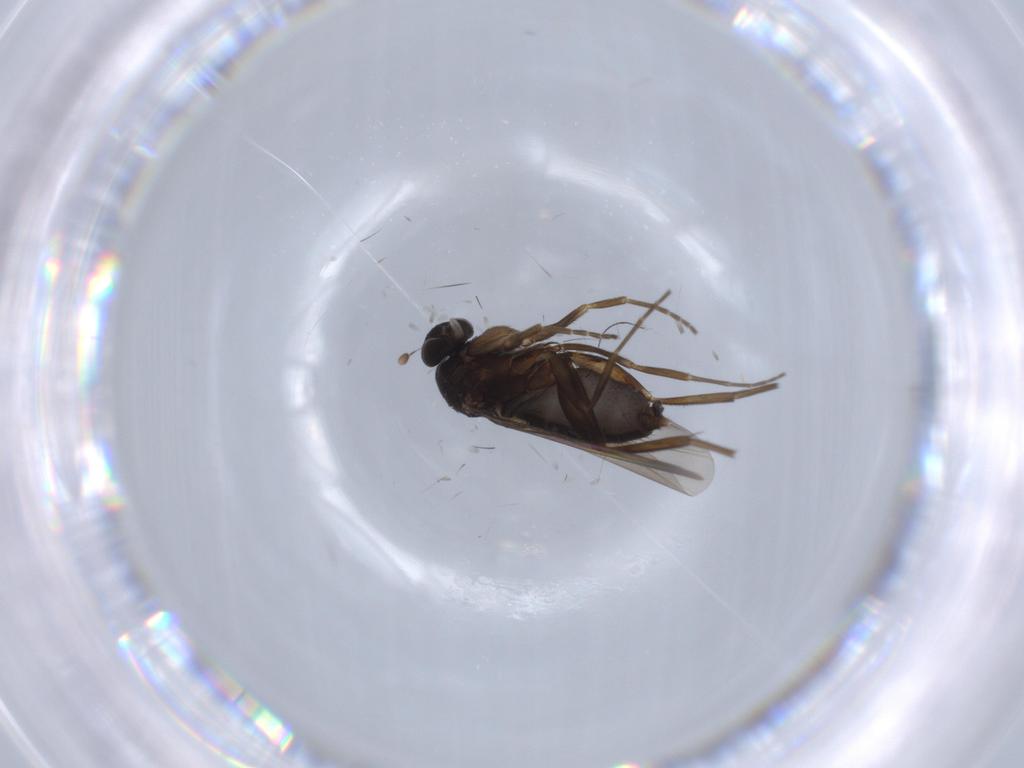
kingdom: Animalia
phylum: Arthropoda
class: Insecta
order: Diptera
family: Phoridae
